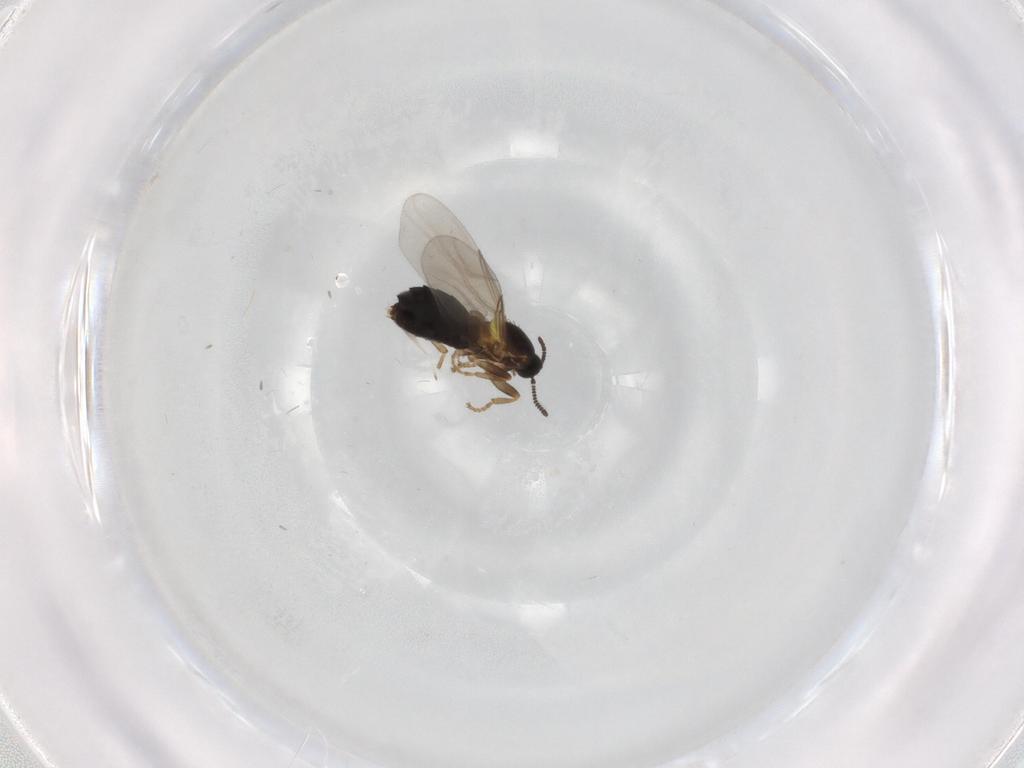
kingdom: Animalia
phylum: Arthropoda
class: Insecta
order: Diptera
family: Scatopsidae
